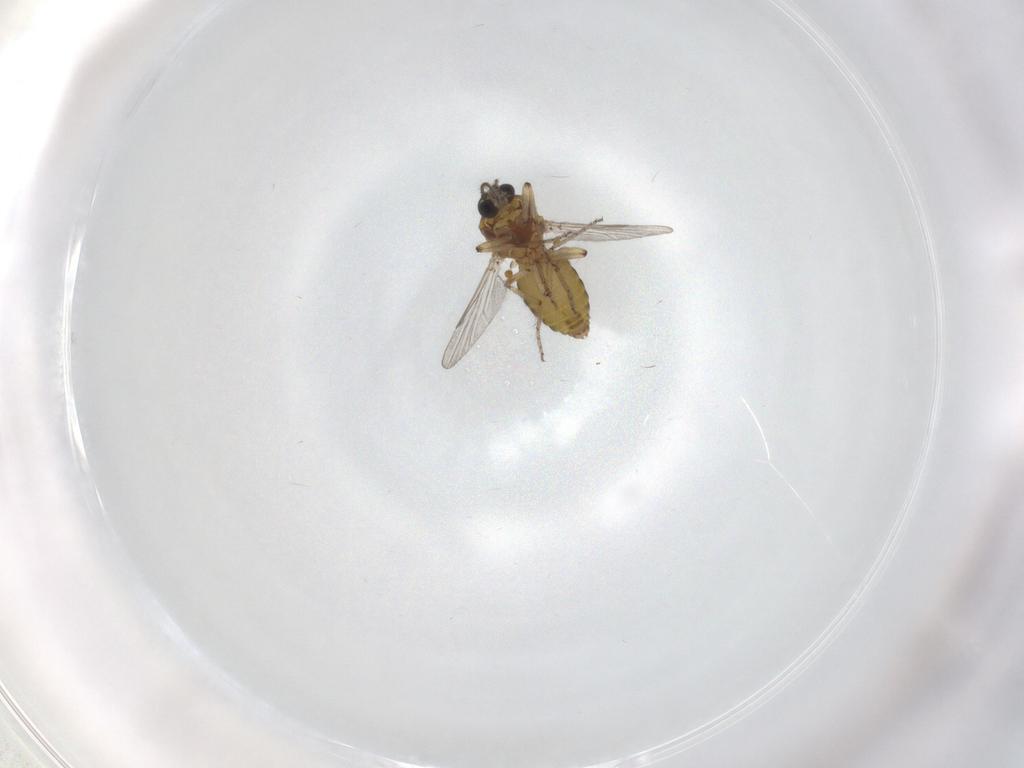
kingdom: Animalia
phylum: Arthropoda
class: Insecta
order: Diptera
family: Ceratopogonidae
